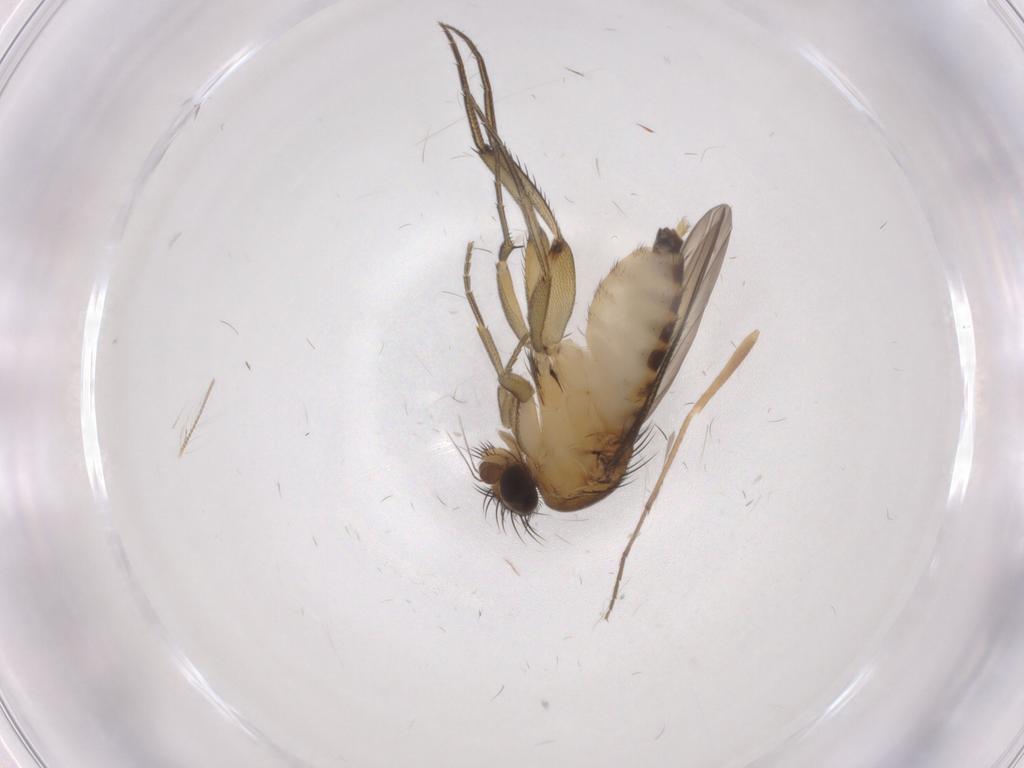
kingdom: Animalia
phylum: Arthropoda
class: Insecta
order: Diptera
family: Phoridae
